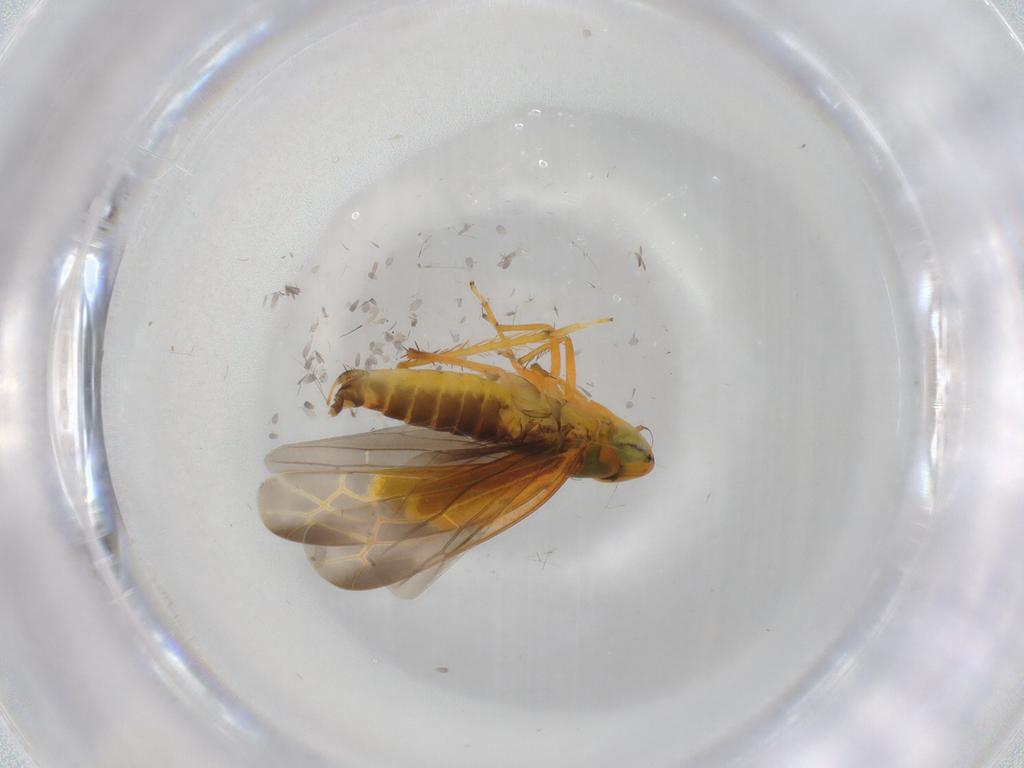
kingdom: Animalia
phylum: Arthropoda
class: Insecta
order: Hemiptera
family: Cicadellidae
